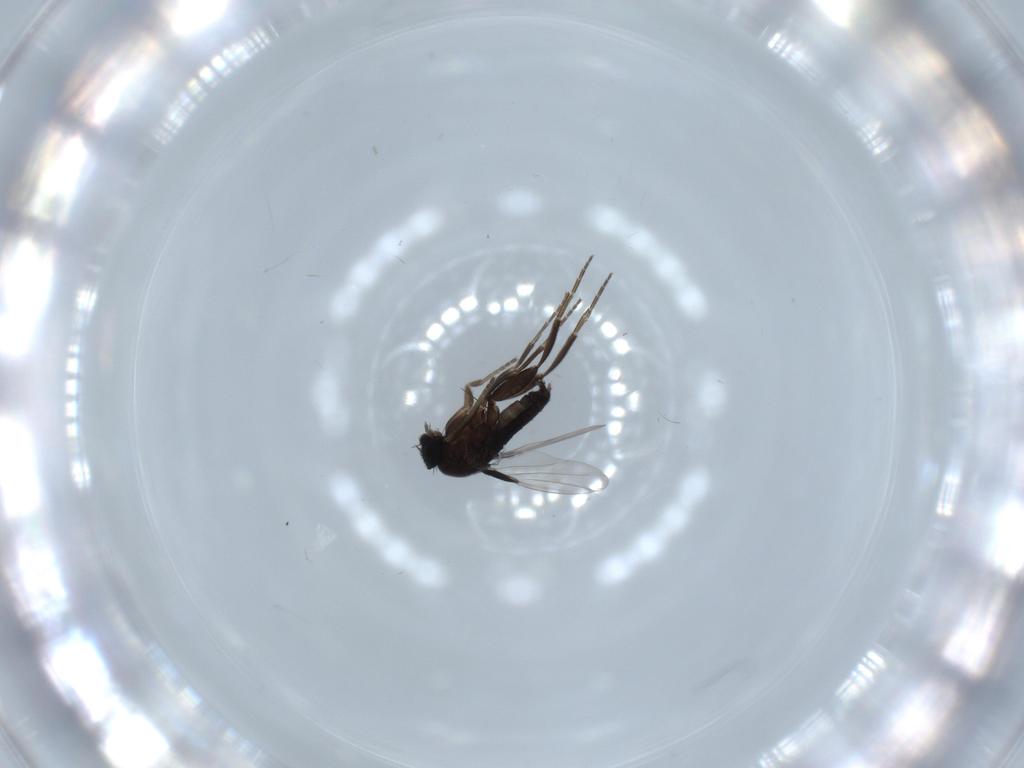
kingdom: Animalia
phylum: Arthropoda
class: Insecta
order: Diptera
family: Phoridae
